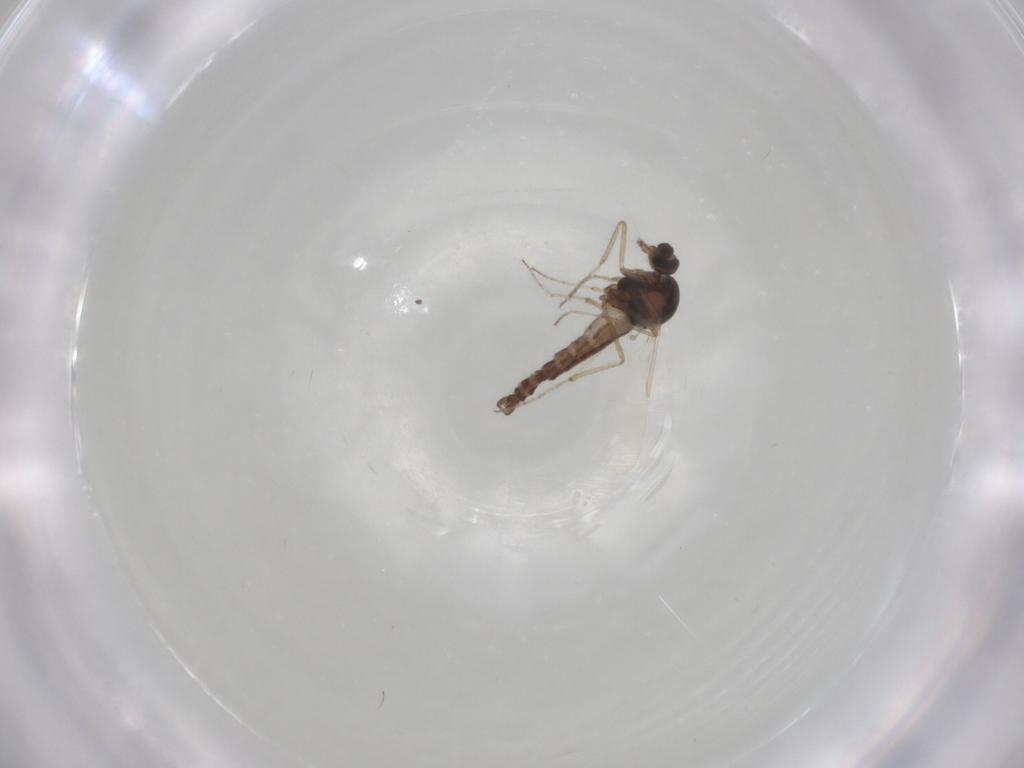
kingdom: Animalia
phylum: Arthropoda
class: Insecta
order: Diptera
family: Ceratopogonidae
